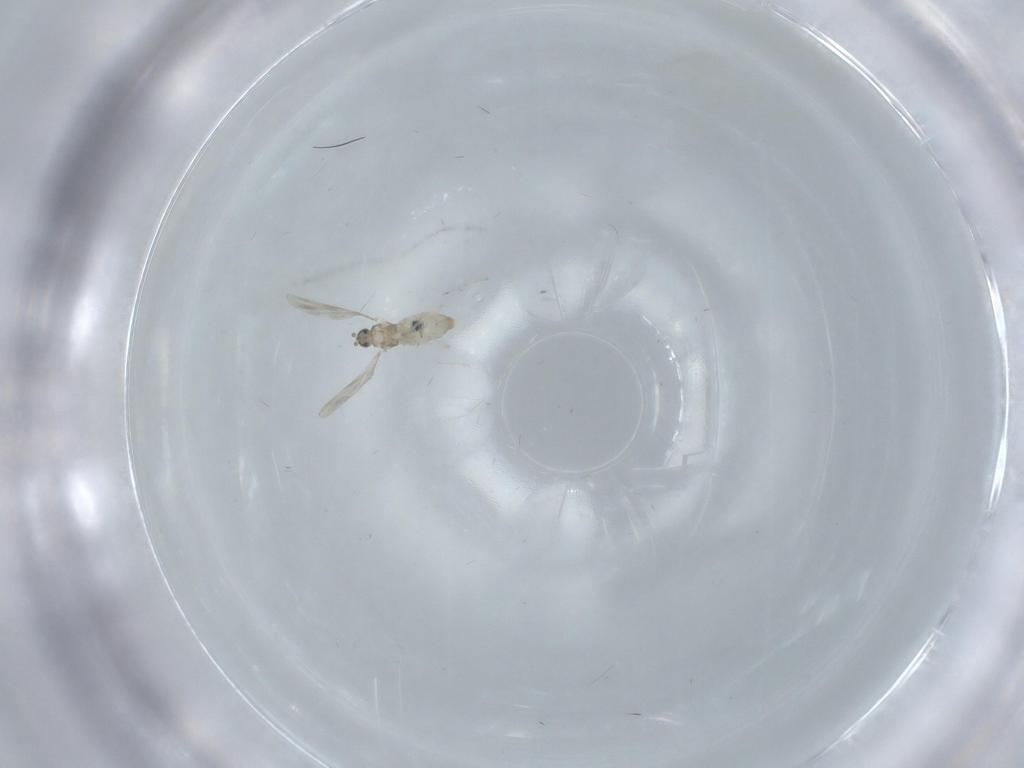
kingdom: Animalia
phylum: Arthropoda
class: Insecta
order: Diptera
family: Cecidomyiidae
